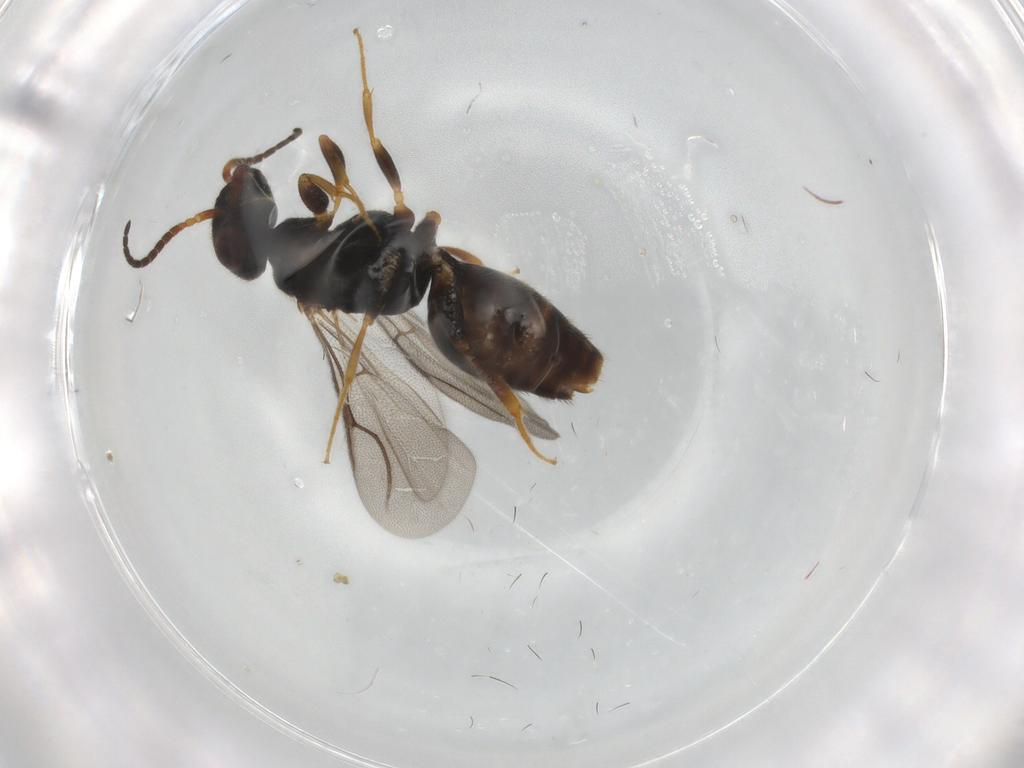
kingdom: Animalia
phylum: Arthropoda
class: Insecta
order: Hymenoptera
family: Bethylidae
